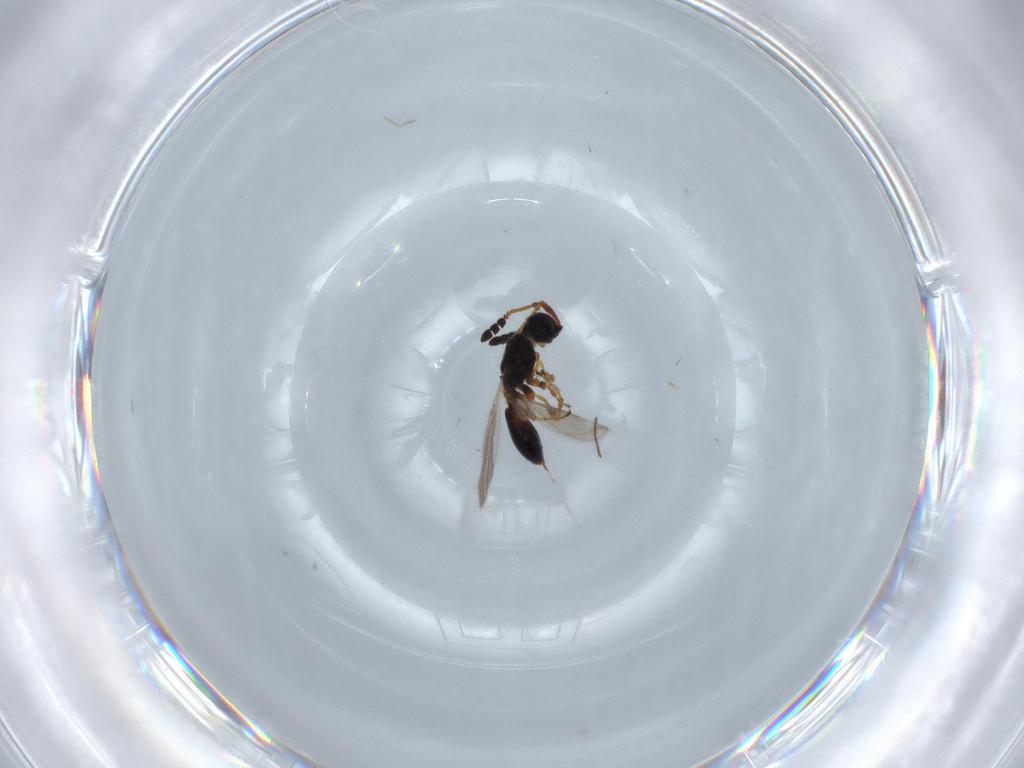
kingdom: Animalia
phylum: Arthropoda
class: Insecta
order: Hymenoptera
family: Diapriidae
